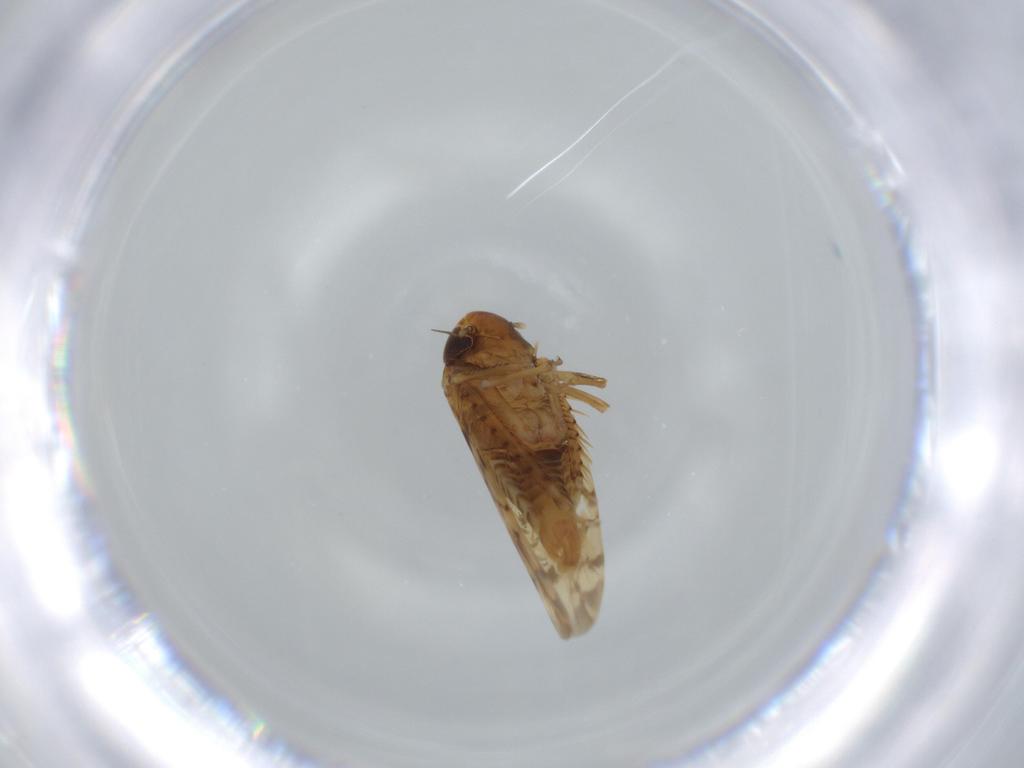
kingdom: Animalia
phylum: Arthropoda
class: Insecta
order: Hemiptera
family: Cicadellidae
